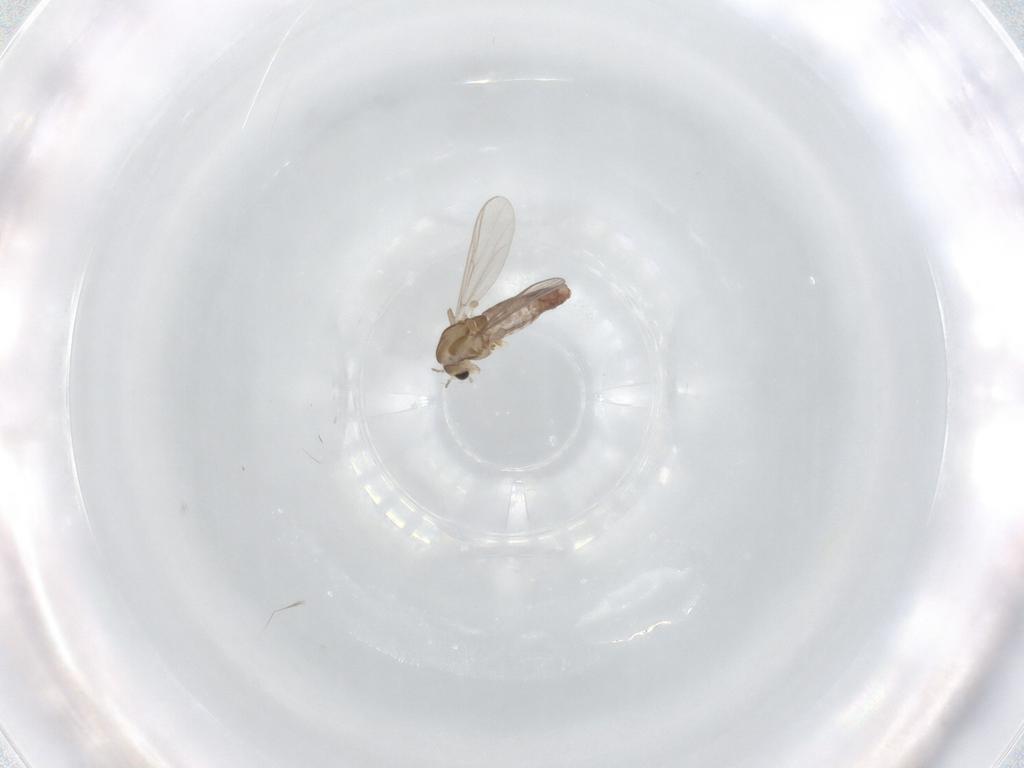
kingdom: Animalia
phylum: Arthropoda
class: Insecta
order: Diptera
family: Chironomidae
